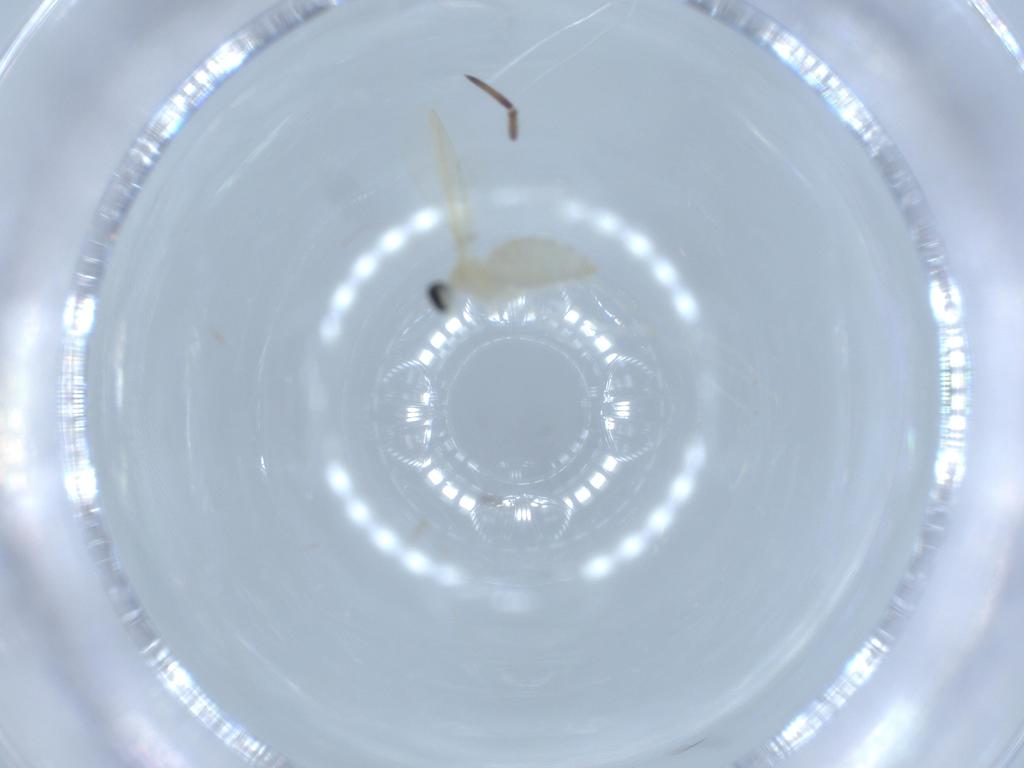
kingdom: Animalia
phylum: Arthropoda
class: Insecta
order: Diptera
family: Cecidomyiidae
